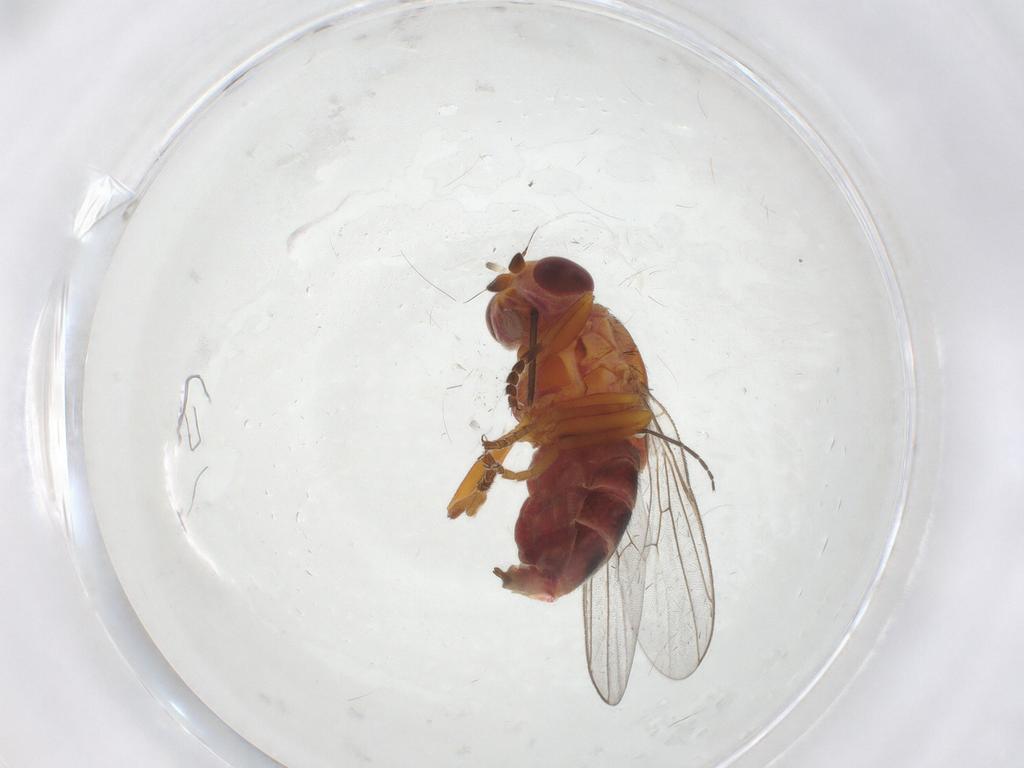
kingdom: Animalia
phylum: Arthropoda
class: Insecta
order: Diptera
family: Chloropidae
